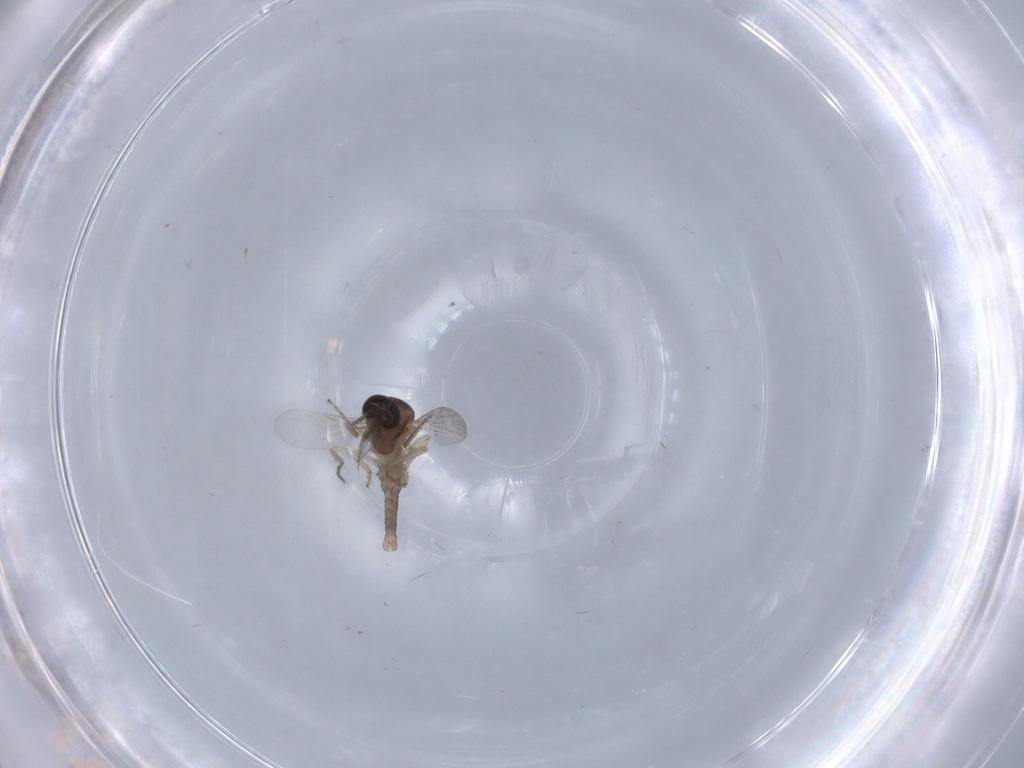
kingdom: Animalia
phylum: Arthropoda
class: Insecta
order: Diptera
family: Ceratopogonidae
